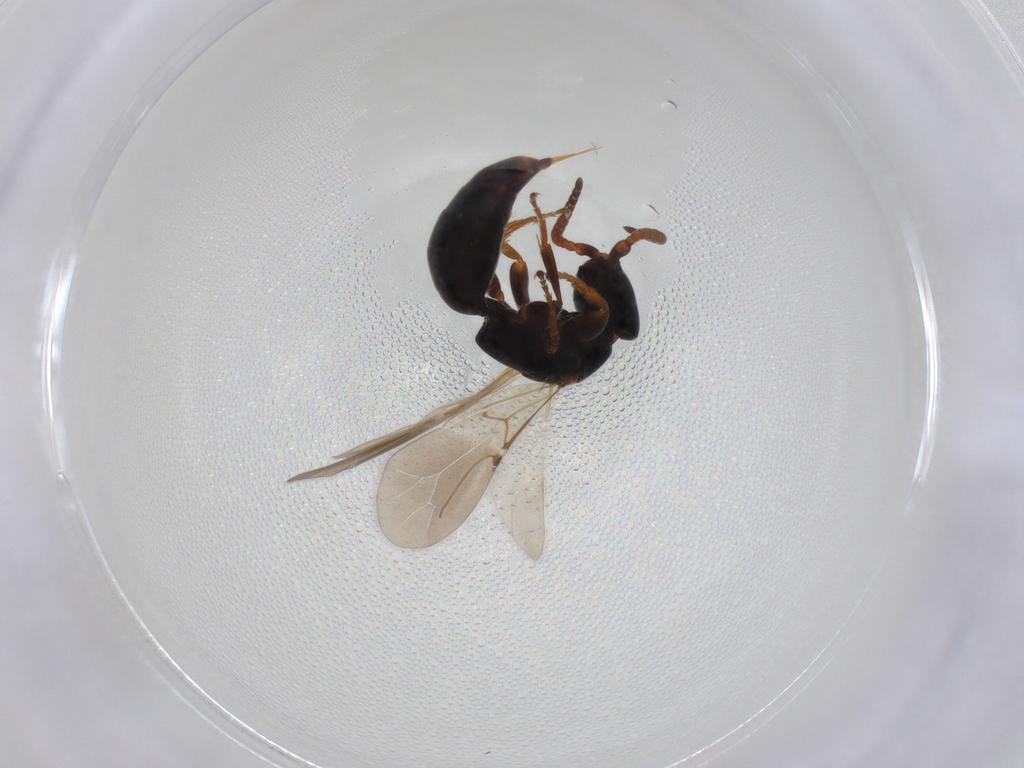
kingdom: Animalia
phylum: Arthropoda
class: Insecta
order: Hymenoptera
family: Bethylidae
